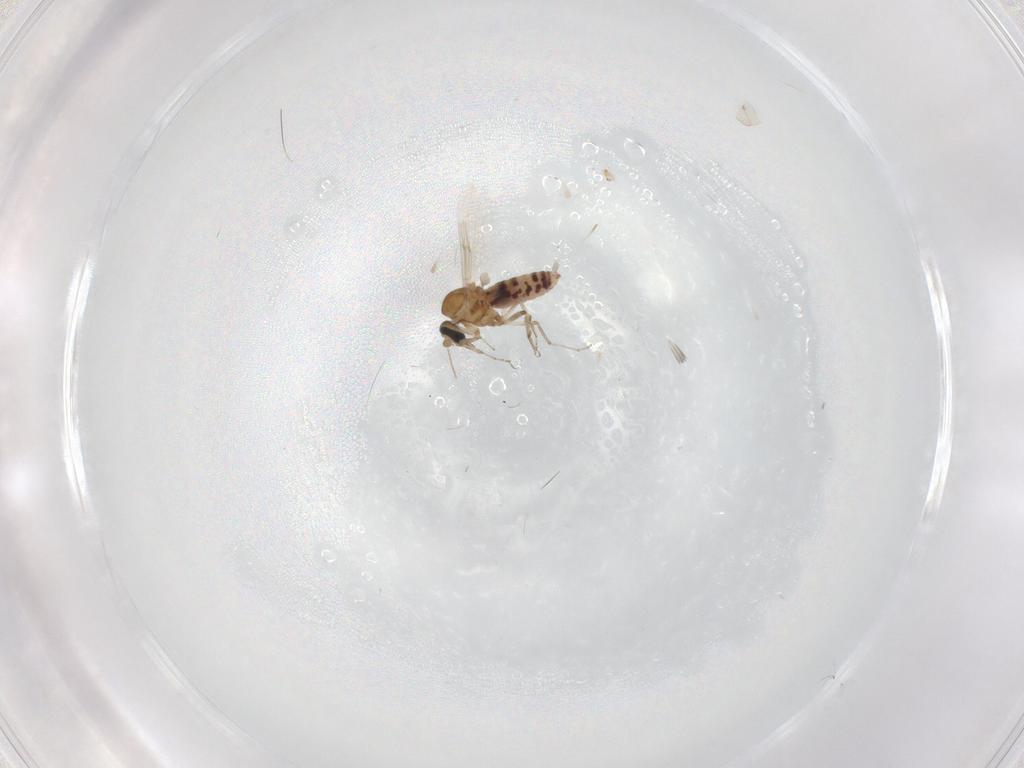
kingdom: Animalia
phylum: Arthropoda
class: Insecta
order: Diptera
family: Ceratopogonidae
